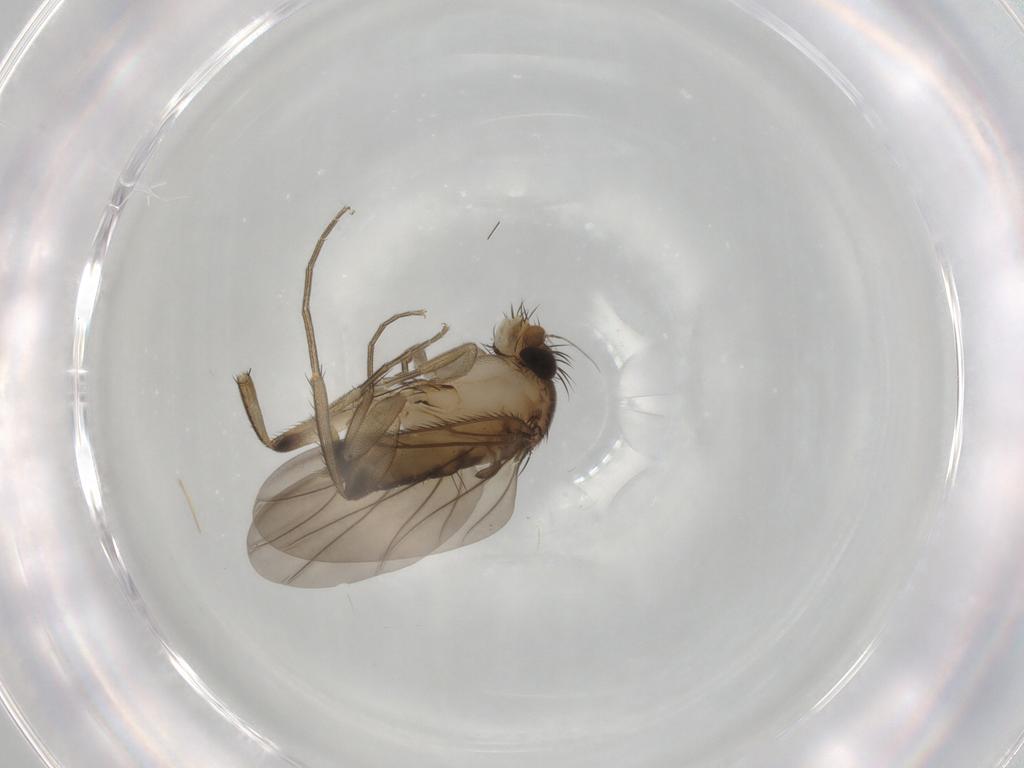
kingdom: Animalia
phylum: Arthropoda
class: Insecta
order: Diptera
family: Phoridae
